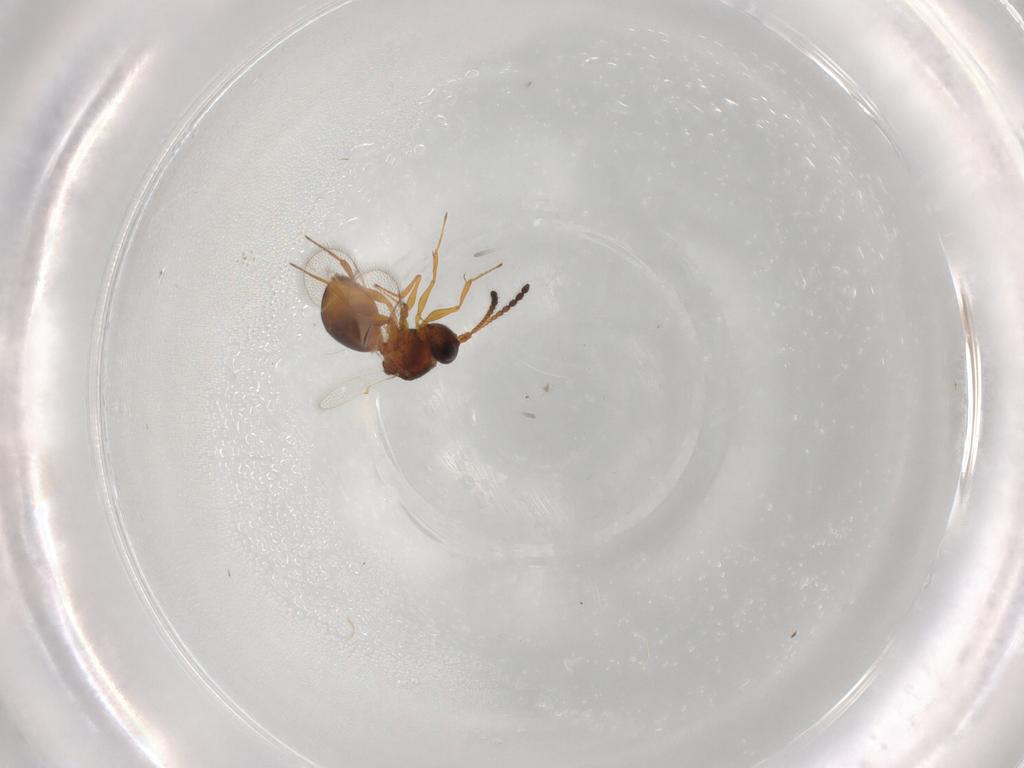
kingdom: Animalia
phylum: Arthropoda
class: Insecta
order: Hymenoptera
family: Figitidae
